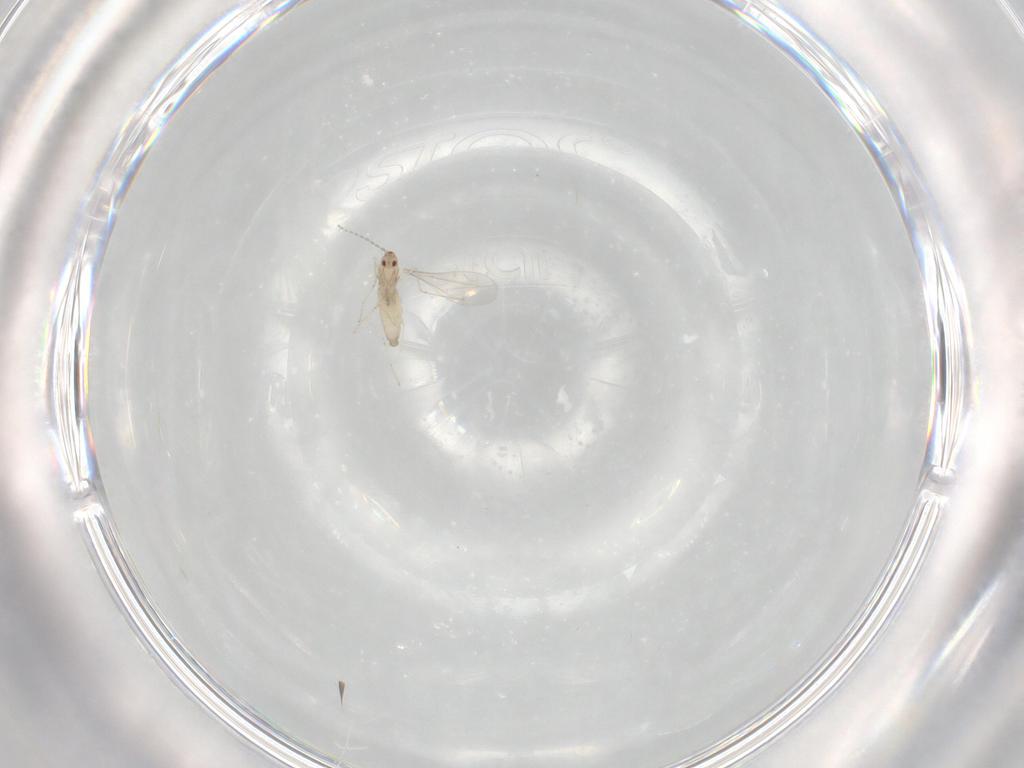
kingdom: Animalia
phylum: Arthropoda
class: Insecta
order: Diptera
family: Cecidomyiidae
